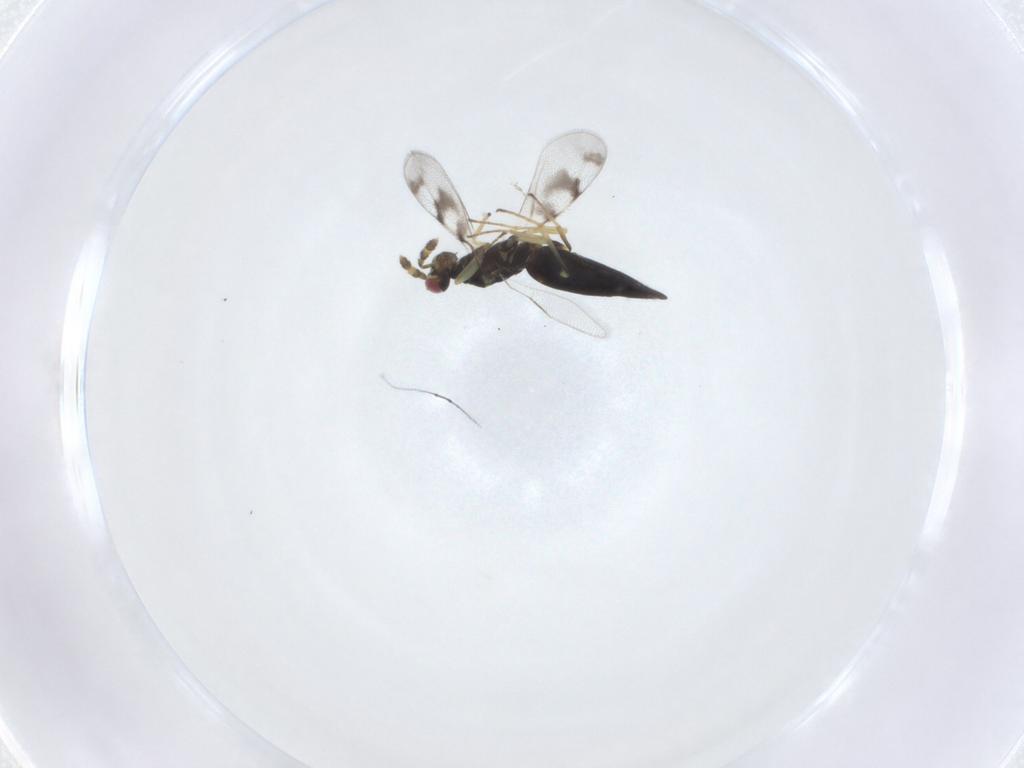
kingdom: Animalia
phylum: Arthropoda
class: Insecta
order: Hymenoptera
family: Eulophidae
